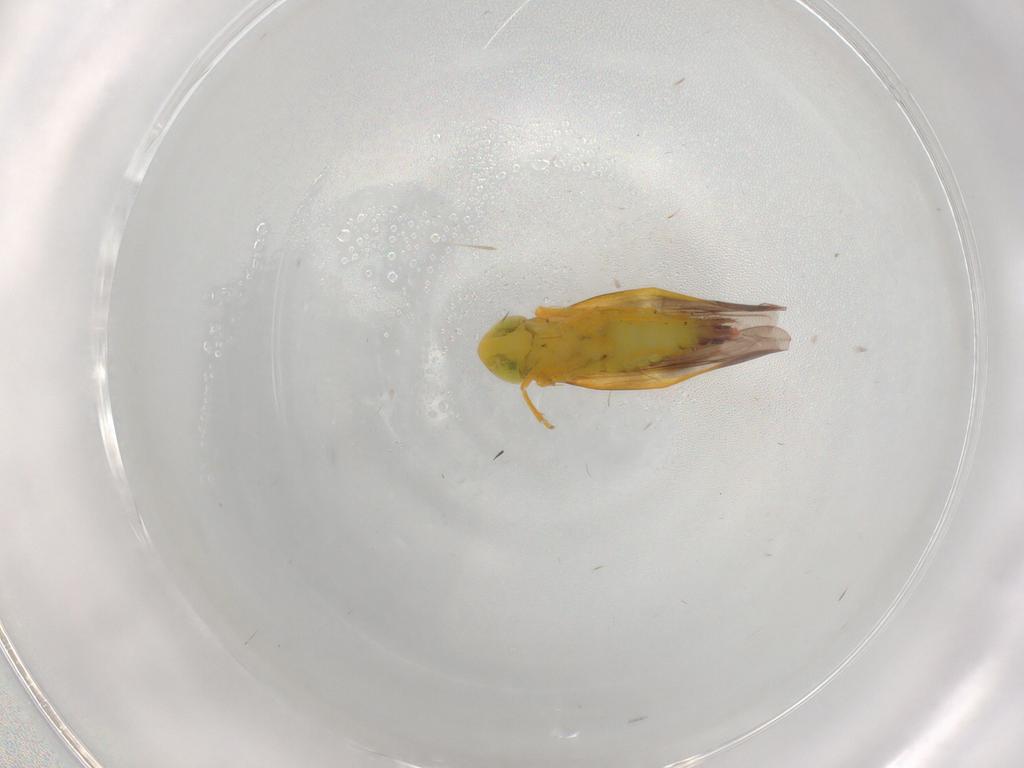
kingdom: Animalia
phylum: Arthropoda
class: Insecta
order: Hemiptera
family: Cicadellidae
